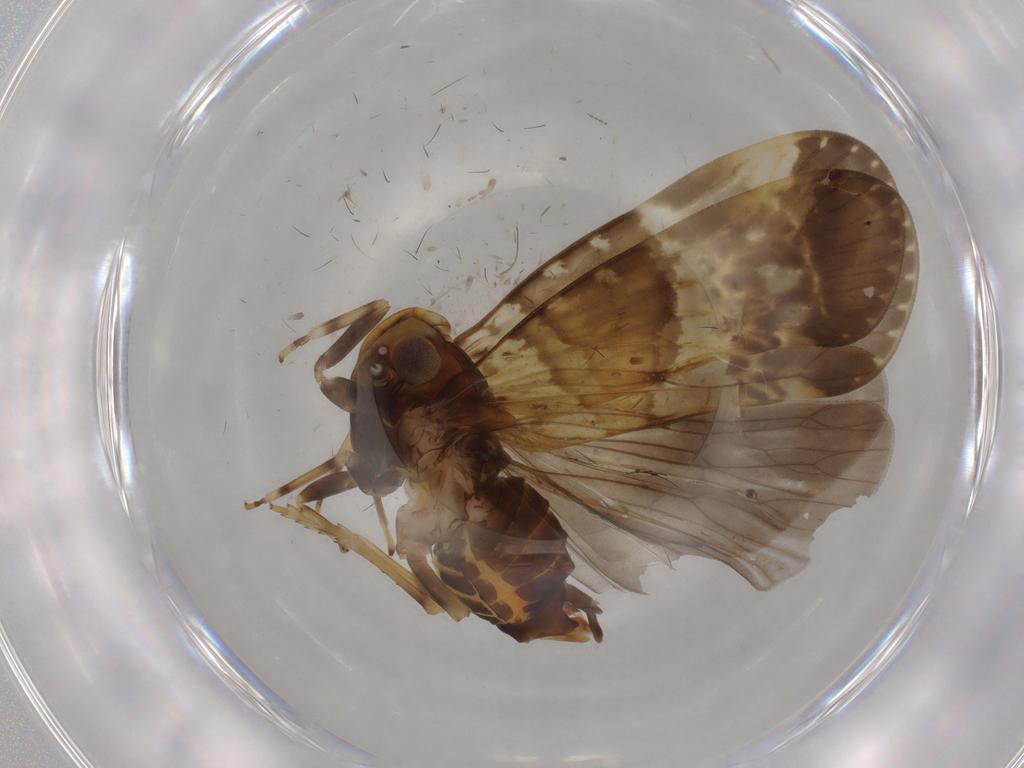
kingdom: Animalia
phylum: Arthropoda
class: Insecta
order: Hemiptera
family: Cixiidae
